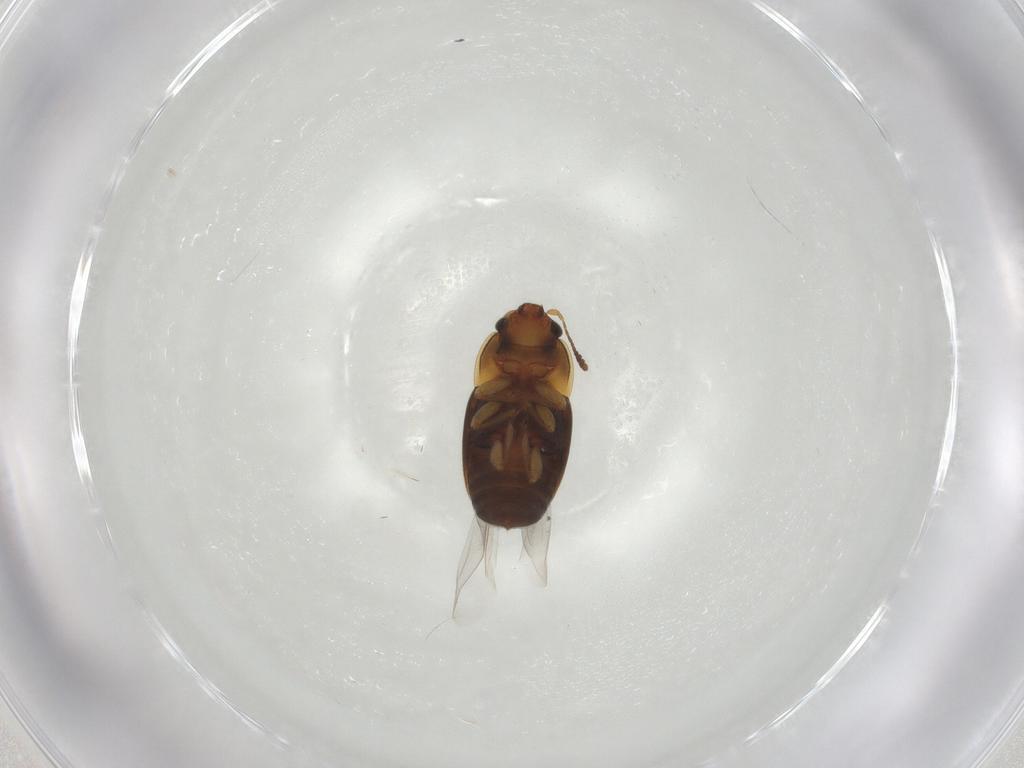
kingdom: Animalia
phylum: Arthropoda
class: Insecta
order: Coleoptera
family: Nitidulidae
